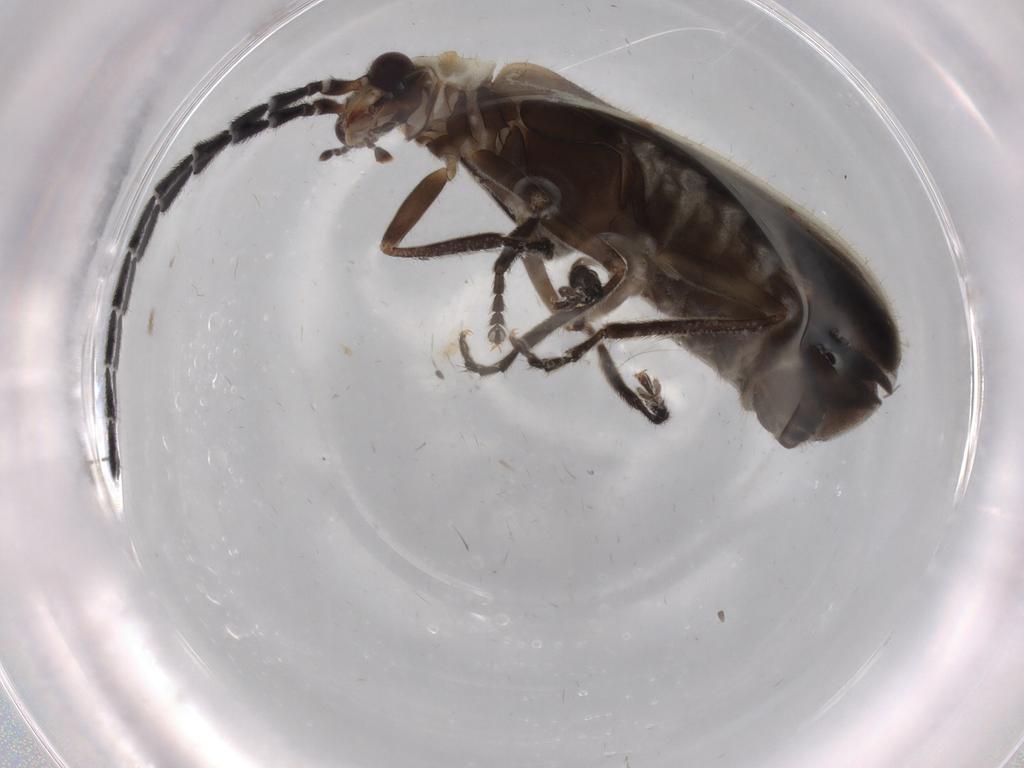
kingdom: Animalia
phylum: Arthropoda
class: Insecta
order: Coleoptera
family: Cantharidae
